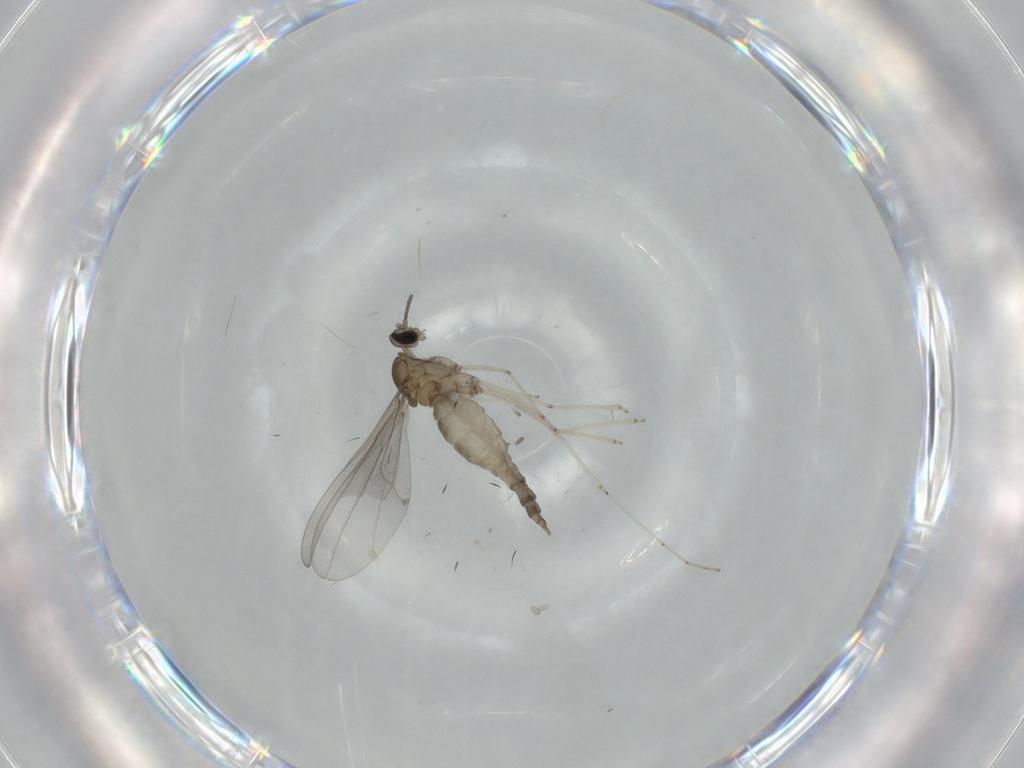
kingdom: Animalia
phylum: Arthropoda
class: Insecta
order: Diptera
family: Cecidomyiidae
